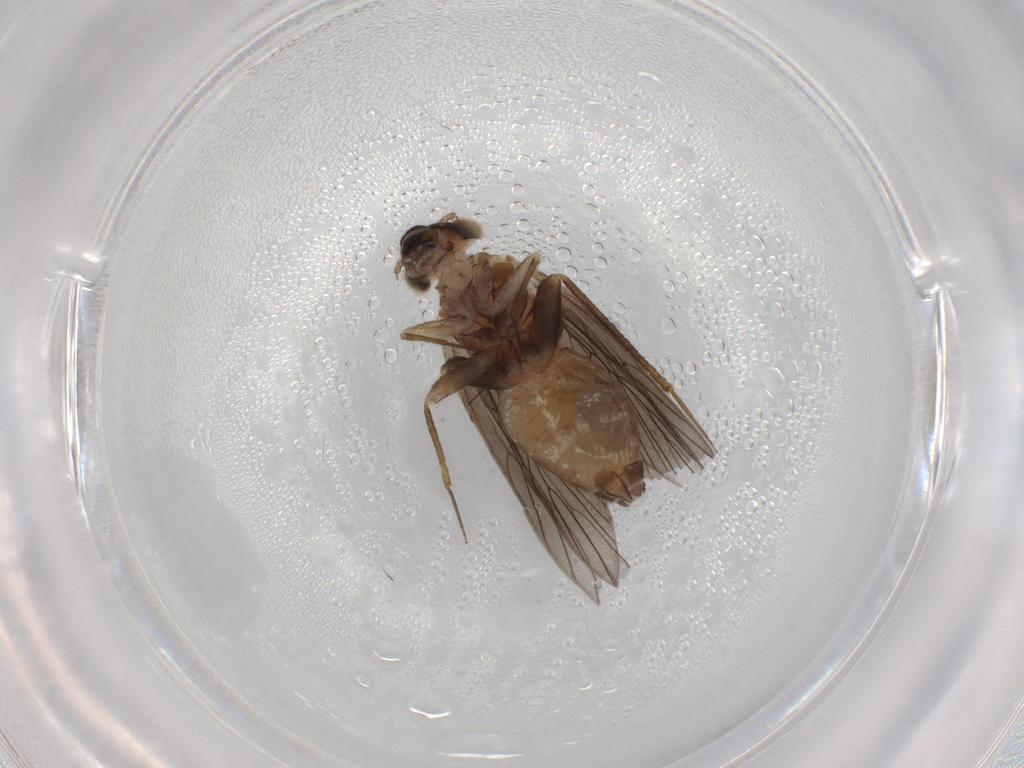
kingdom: Animalia
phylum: Arthropoda
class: Insecta
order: Psocodea
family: Lepidopsocidae
